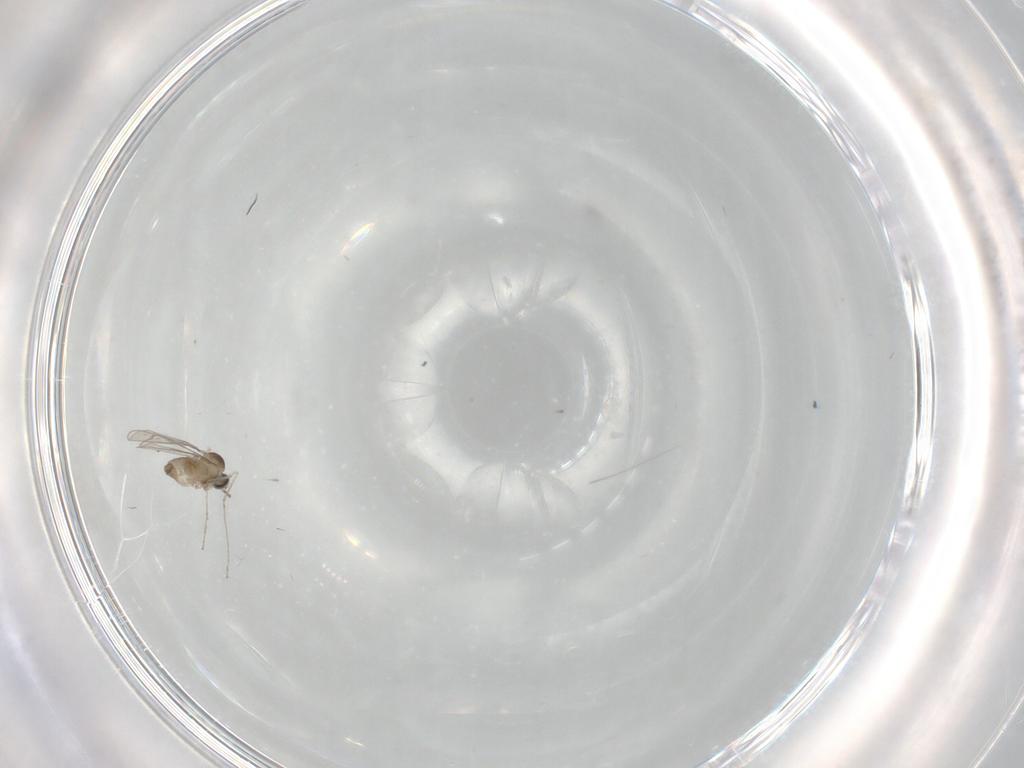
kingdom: Animalia
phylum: Arthropoda
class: Insecta
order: Diptera
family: Cecidomyiidae
